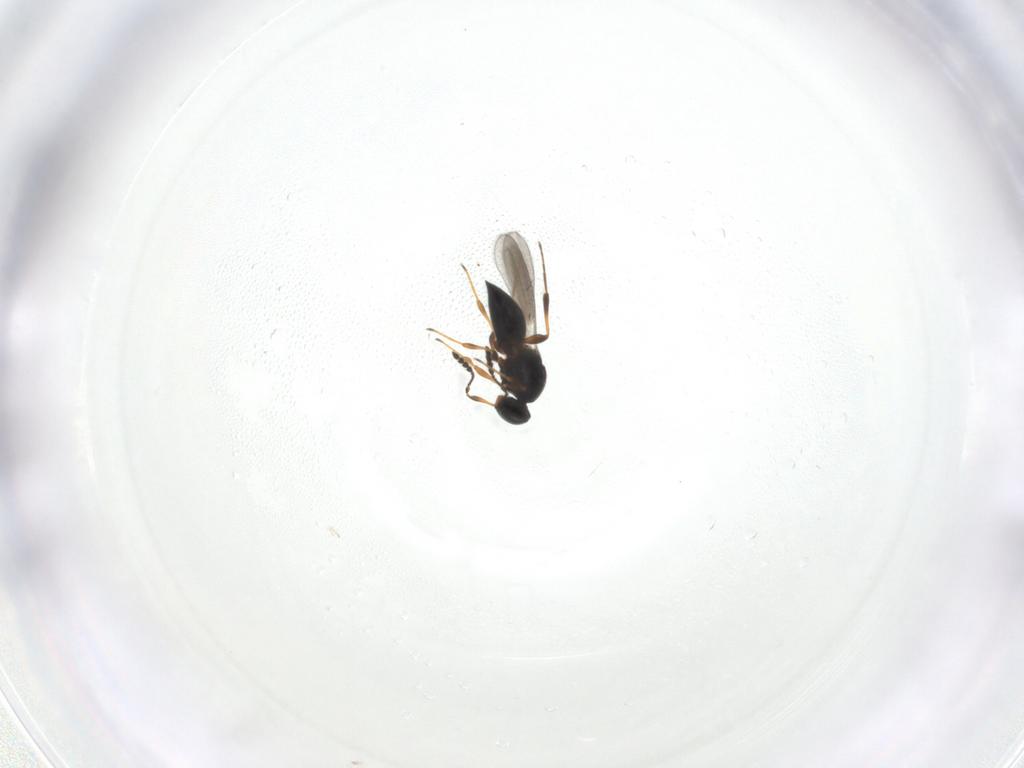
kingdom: Animalia
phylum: Arthropoda
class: Insecta
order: Hymenoptera
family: Platygastridae
